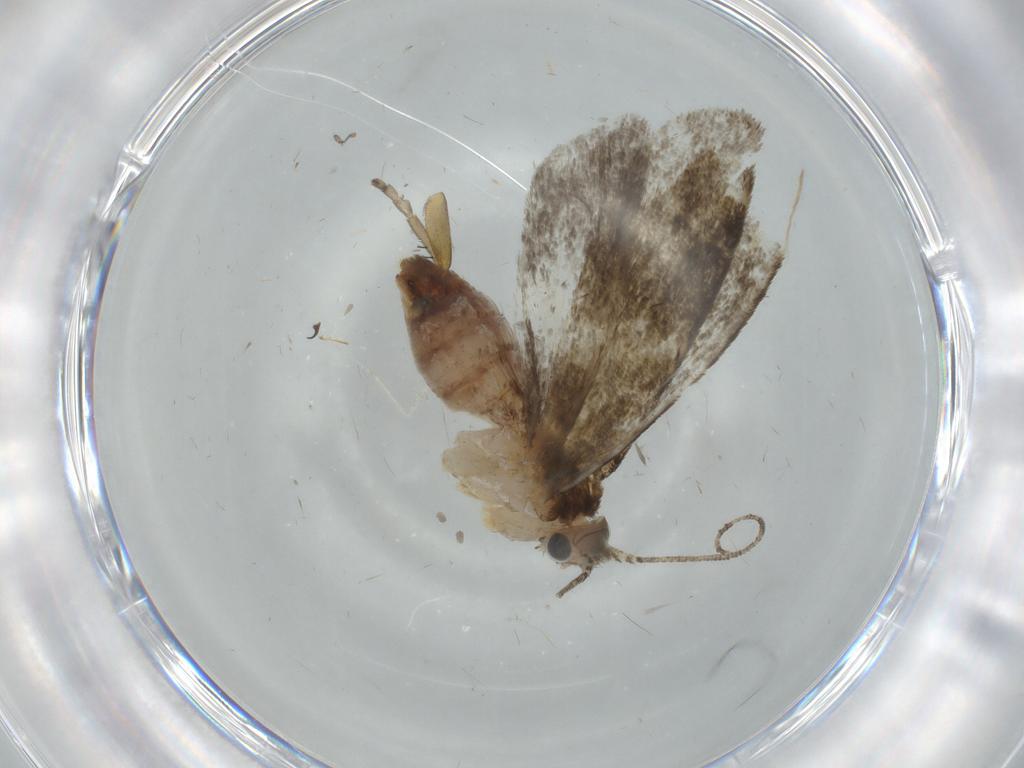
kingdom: Animalia
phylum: Arthropoda
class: Insecta
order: Lepidoptera
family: Tineidae
